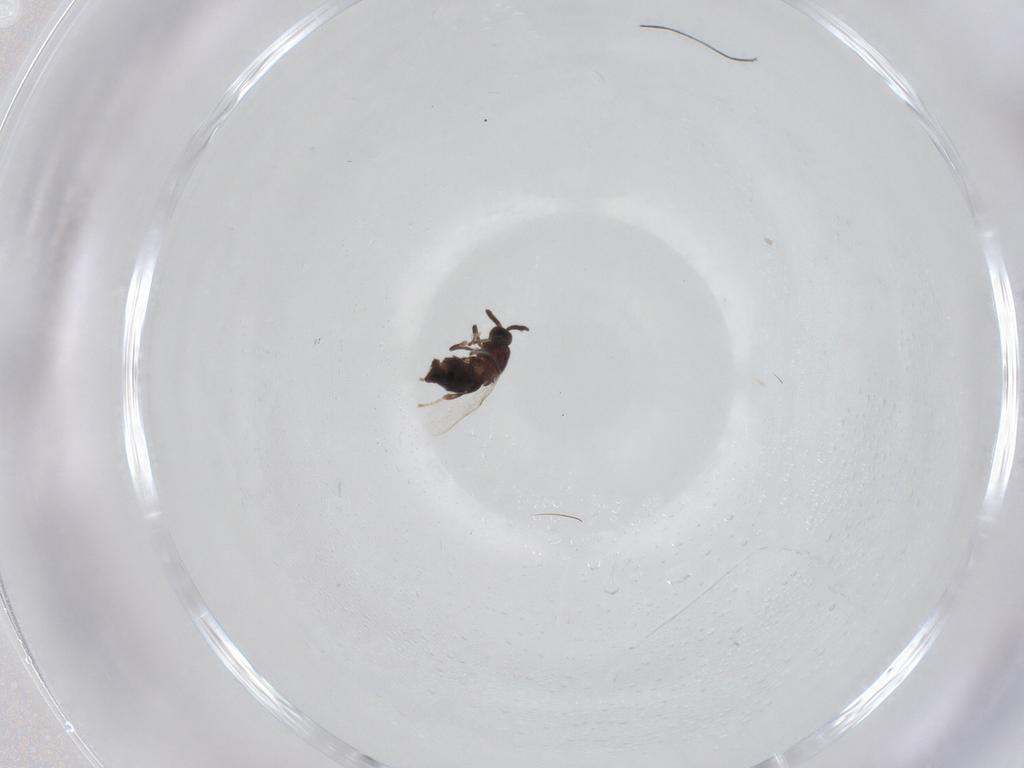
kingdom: Animalia
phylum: Arthropoda
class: Insecta
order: Diptera
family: Scatopsidae
